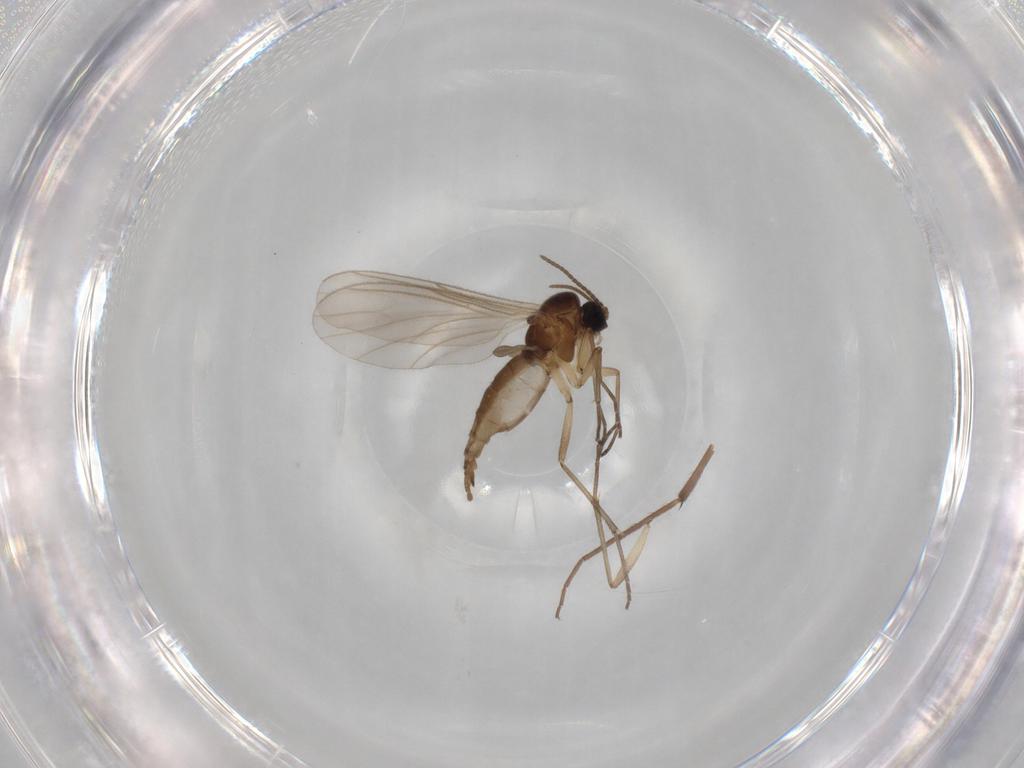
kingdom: Animalia
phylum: Arthropoda
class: Insecta
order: Diptera
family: Chironomidae
